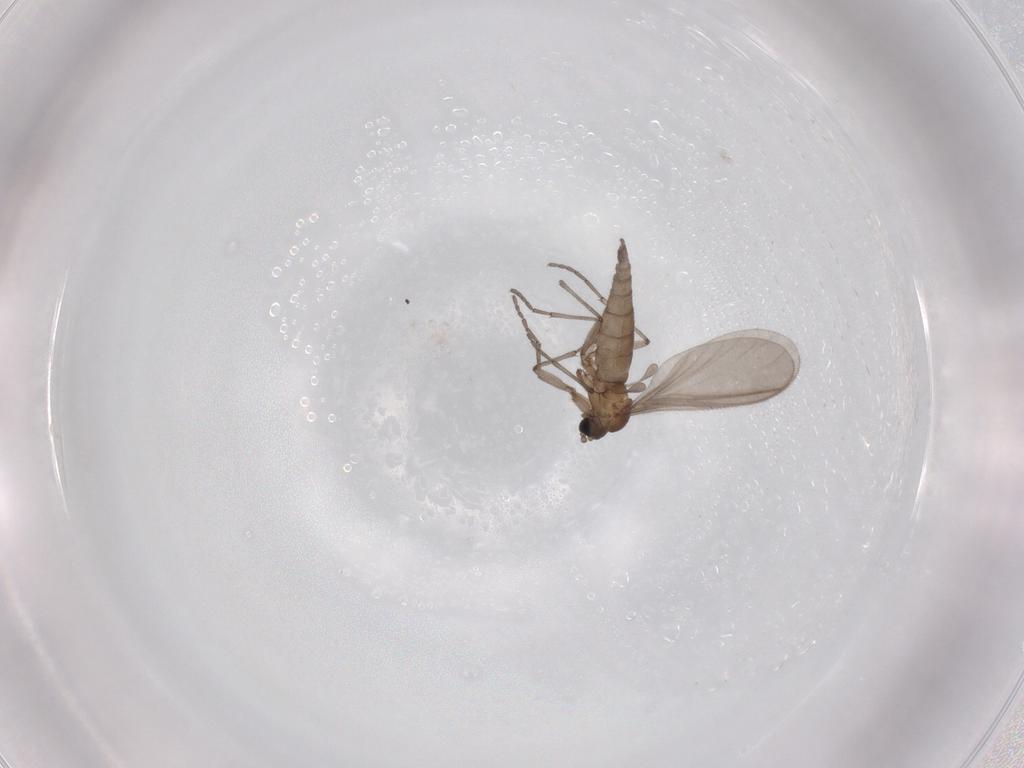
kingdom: Animalia
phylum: Arthropoda
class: Insecta
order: Diptera
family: Sciaridae
